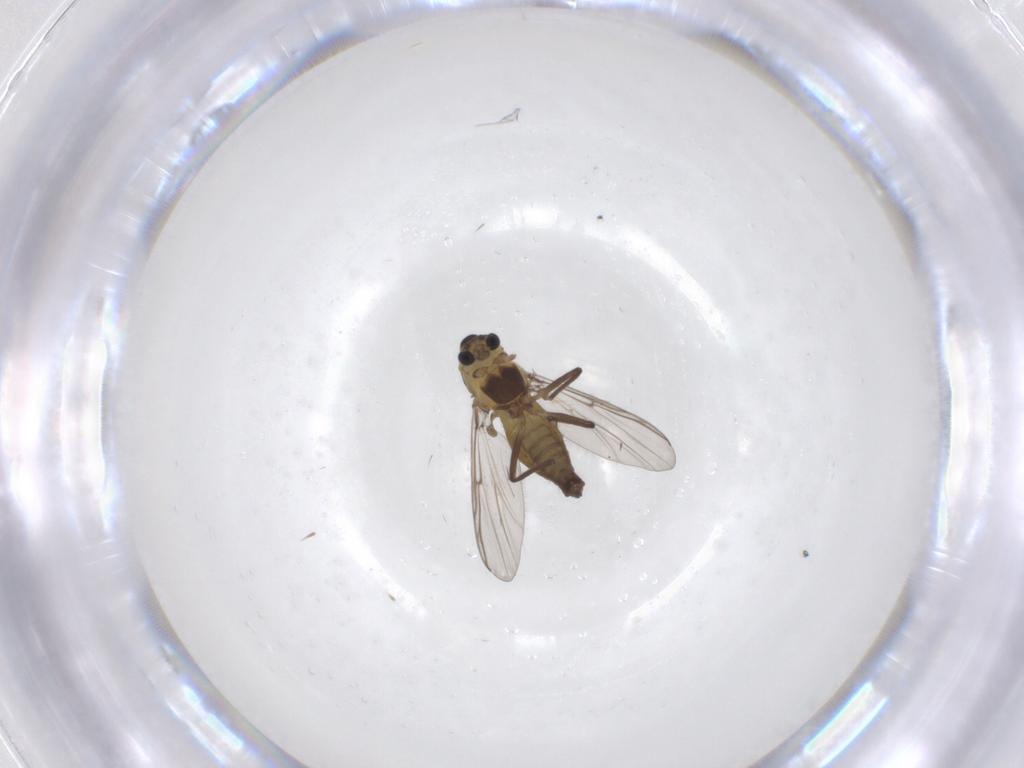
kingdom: Animalia
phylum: Arthropoda
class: Insecta
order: Diptera
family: Chironomidae
